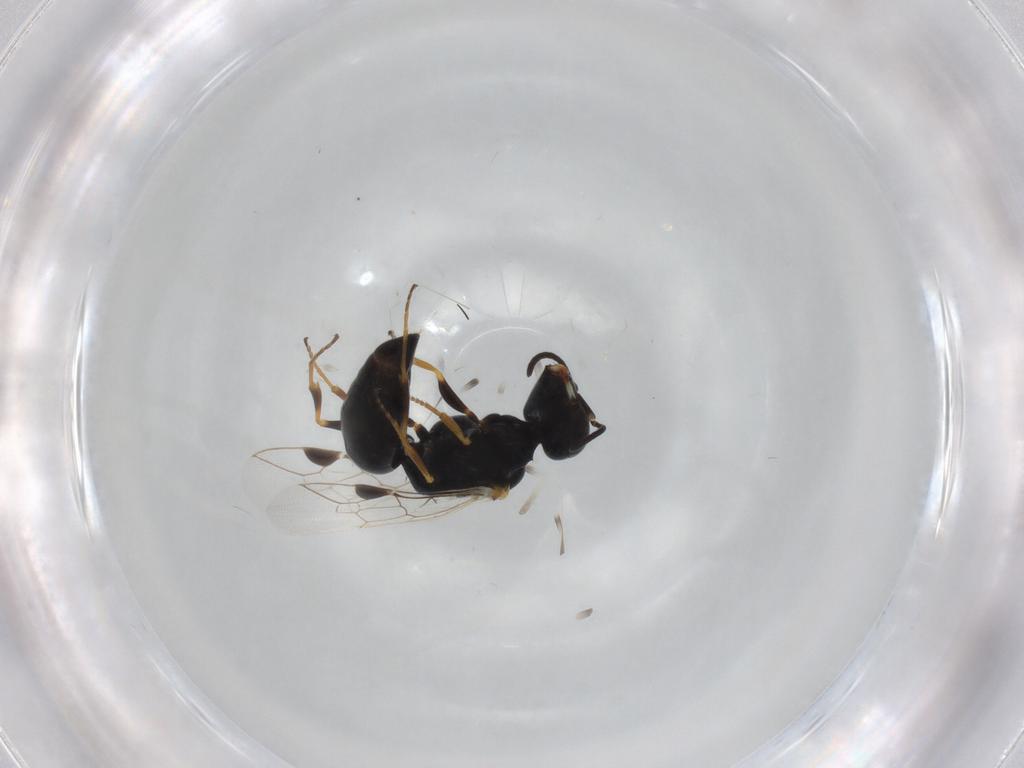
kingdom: Animalia
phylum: Arthropoda
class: Insecta
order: Hymenoptera
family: Pemphredonidae
